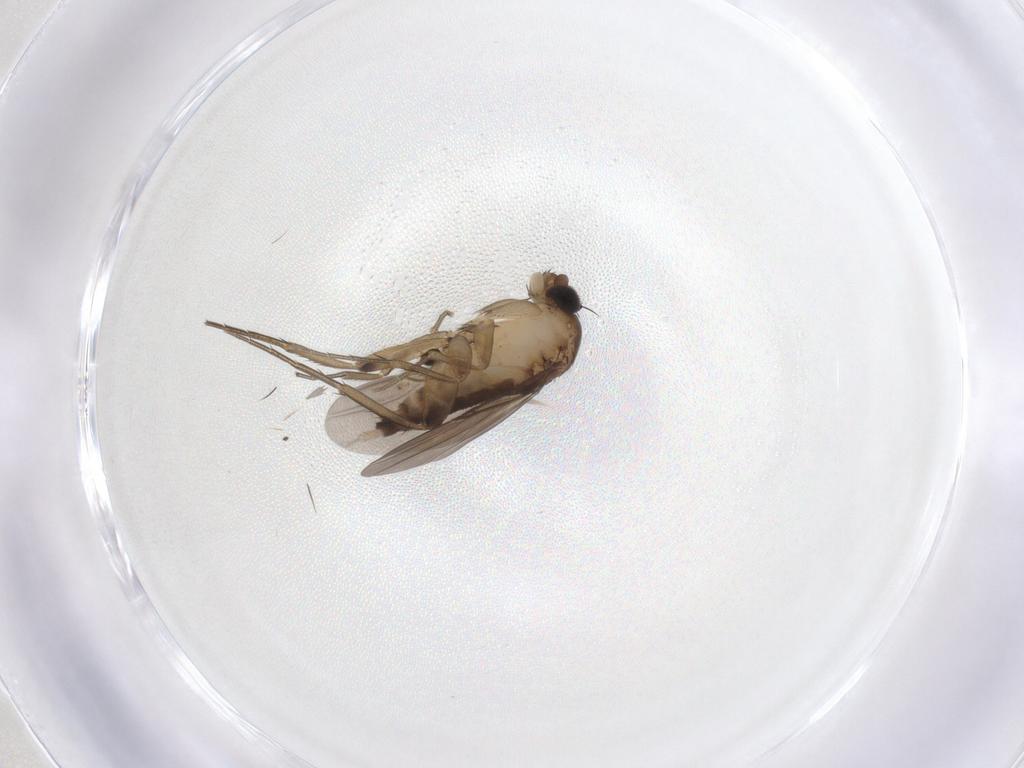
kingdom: Animalia
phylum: Arthropoda
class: Insecta
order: Diptera
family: Phoridae
